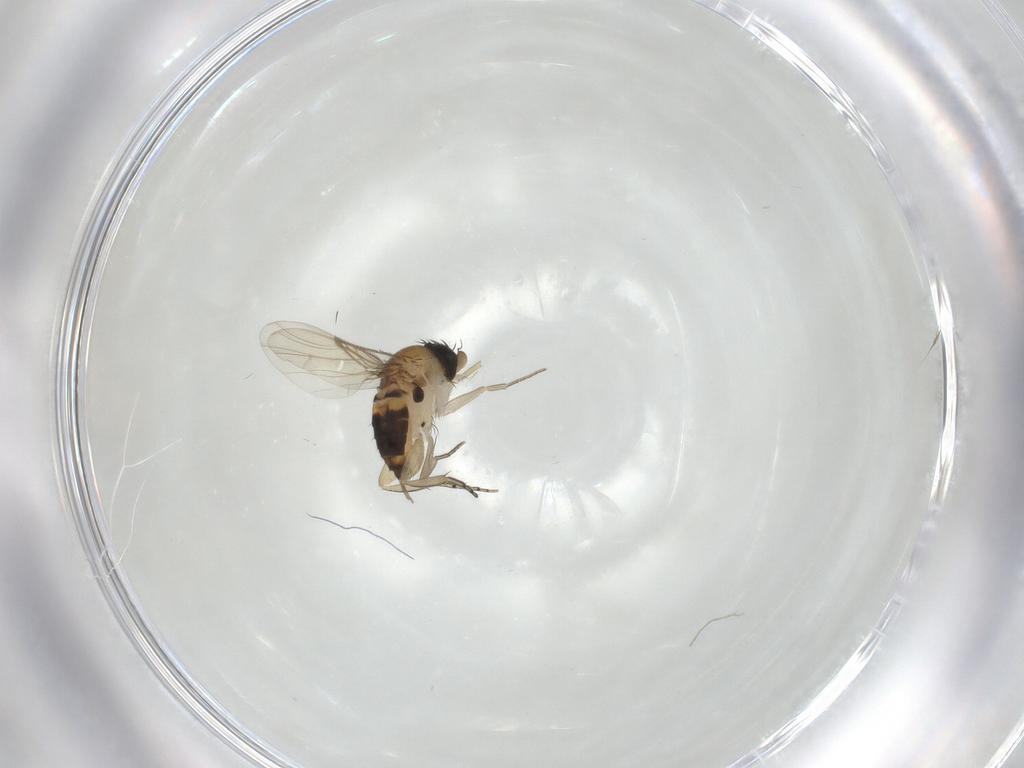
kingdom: Animalia
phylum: Arthropoda
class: Insecta
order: Diptera
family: Phoridae
